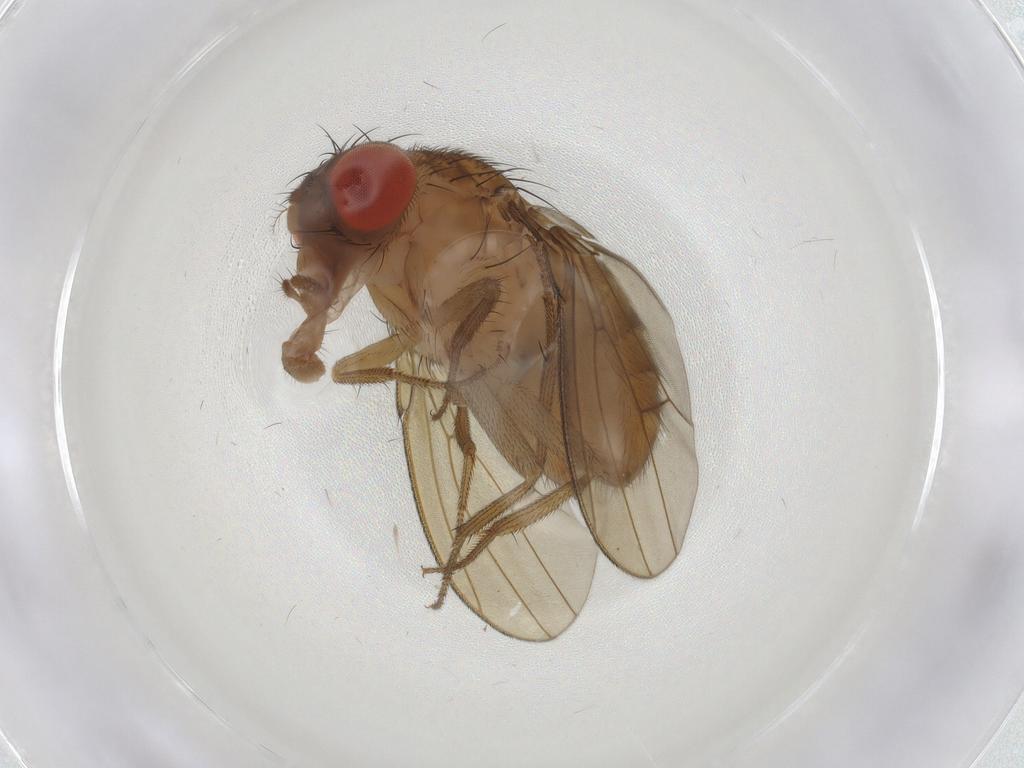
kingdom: Animalia
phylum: Arthropoda
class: Insecta
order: Diptera
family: Drosophilidae
